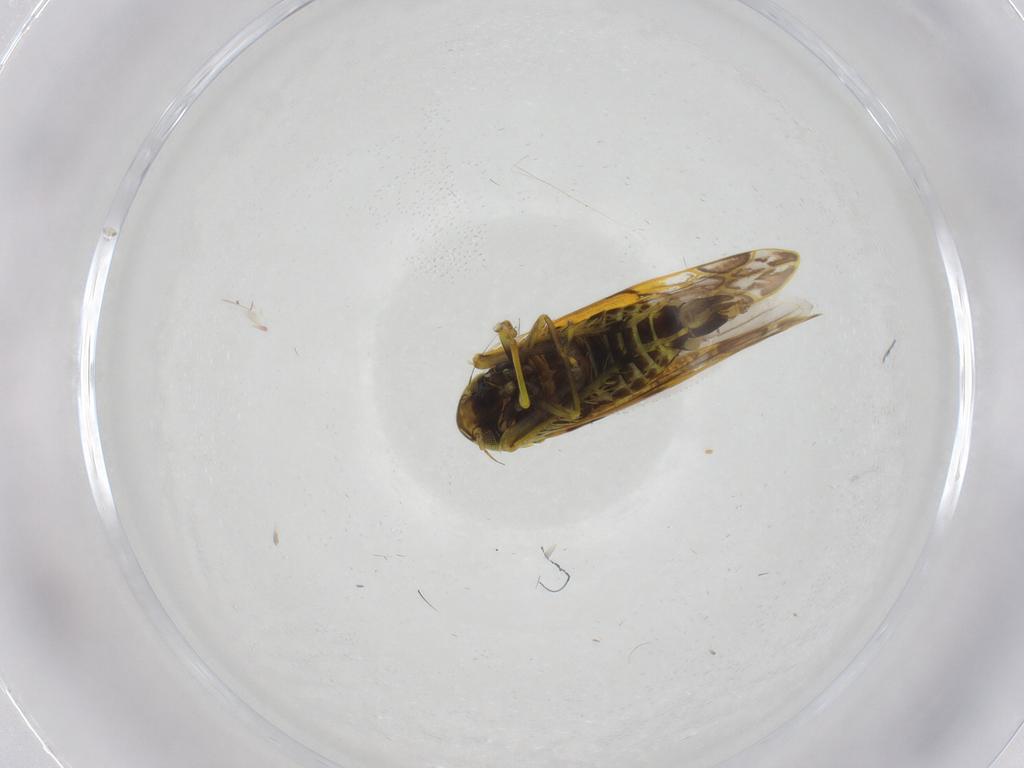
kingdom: Animalia
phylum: Arthropoda
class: Insecta
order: Hemiptera
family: Cicadellidae
